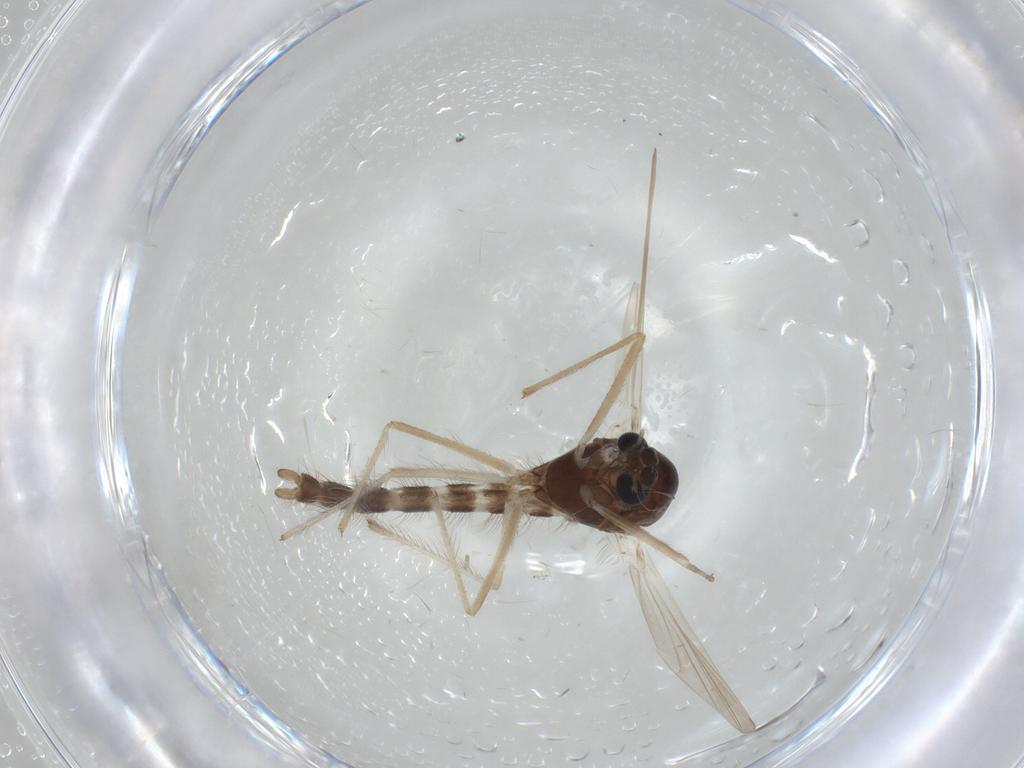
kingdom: Animalia
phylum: Arthropoda
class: Insecta
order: Diptera
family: Chironomidae
